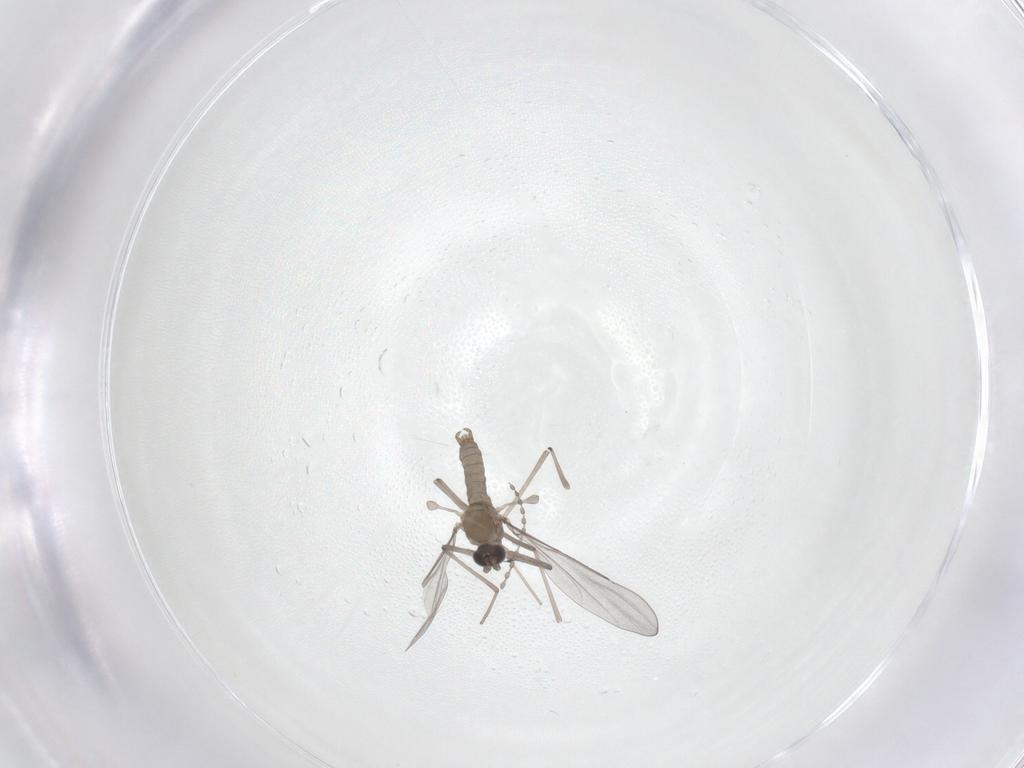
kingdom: Animalia
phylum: Arthropoda
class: Insecta
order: Diptera
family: Cecidomyiidae
